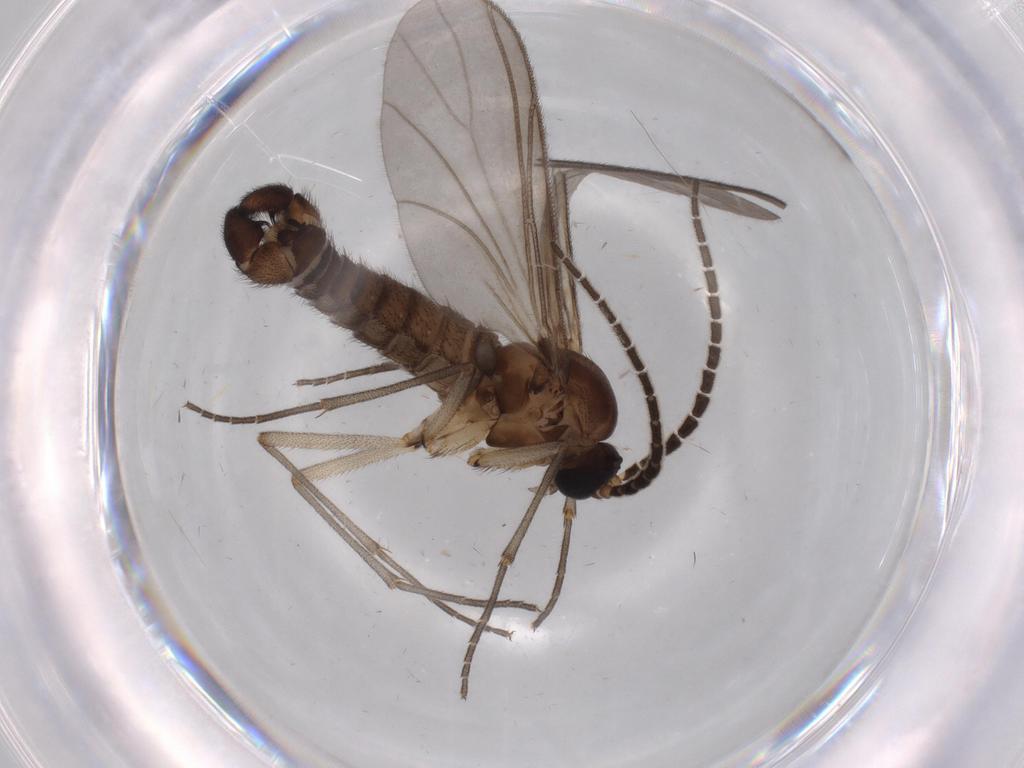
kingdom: Animalia
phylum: Arthropoda
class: Insecta
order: Diptera
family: Sciaridae
